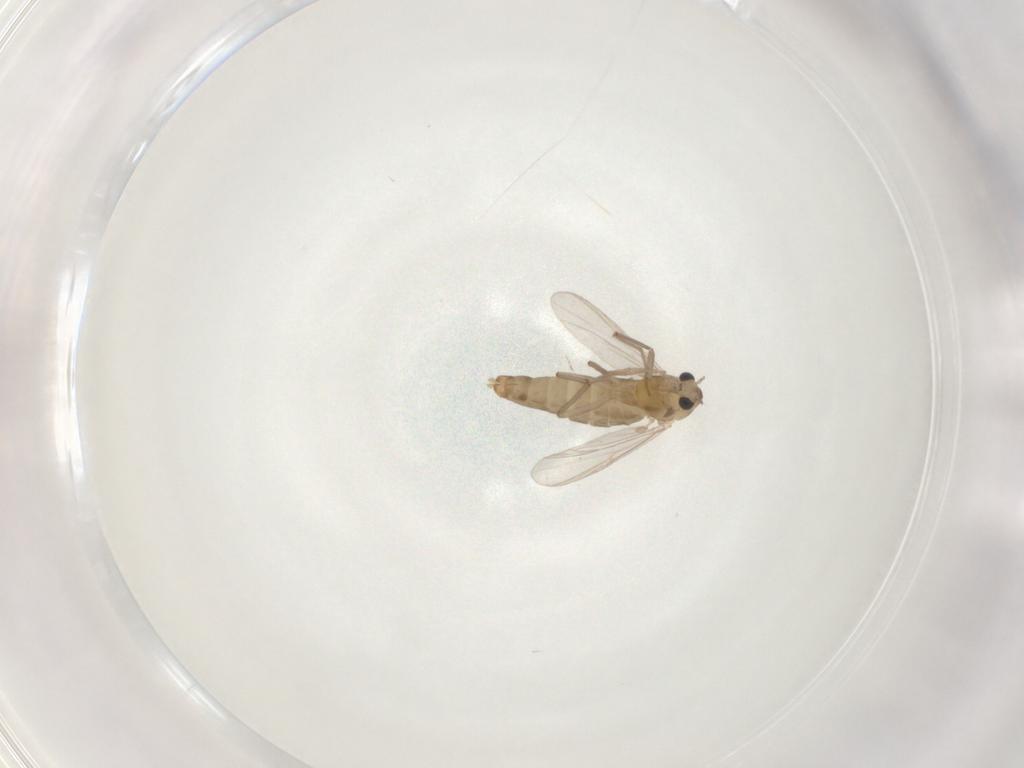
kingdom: Animalia
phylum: Arthropoda
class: Insecta
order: Diptera
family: Chironomidae
